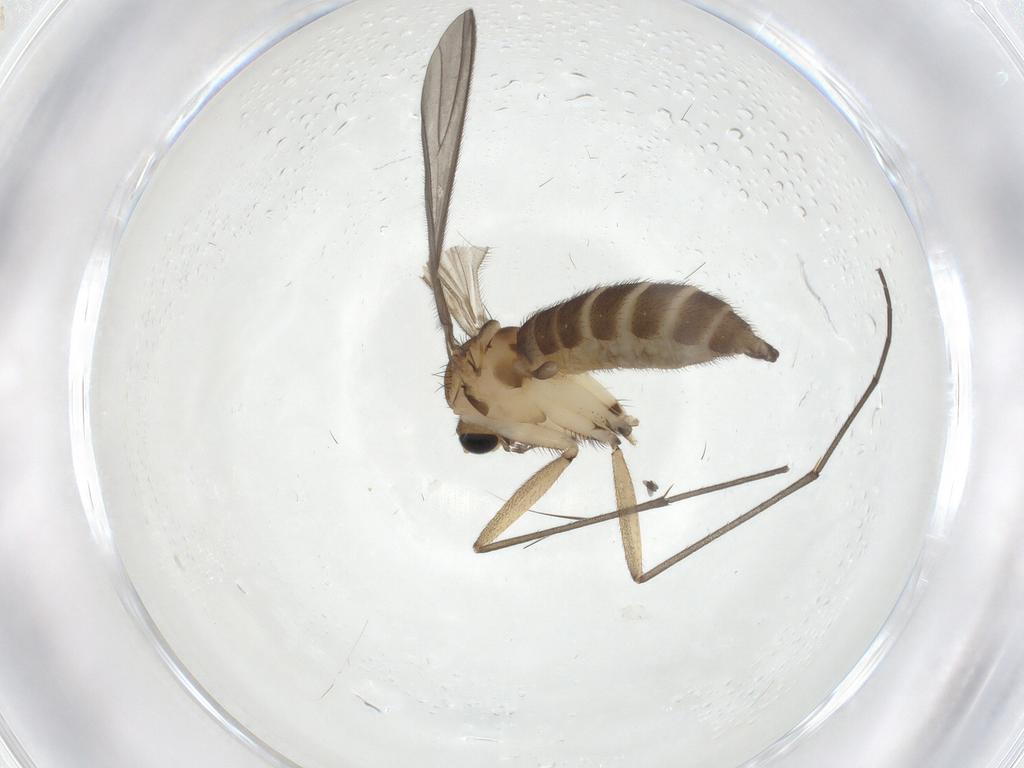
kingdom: Animalia
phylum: Arthropoda
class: Insecta
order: Diptera
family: Sciaridae
